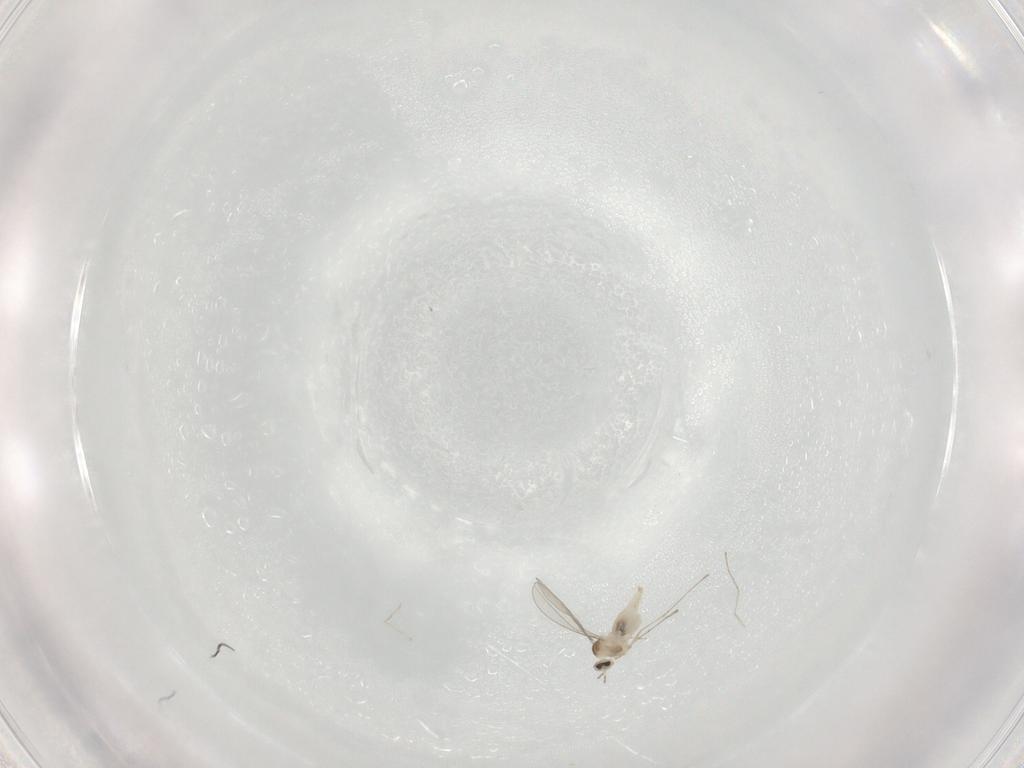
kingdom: Animalia
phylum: Arthropoda
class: Insecta
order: Diptera
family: Cecidomyiidae
